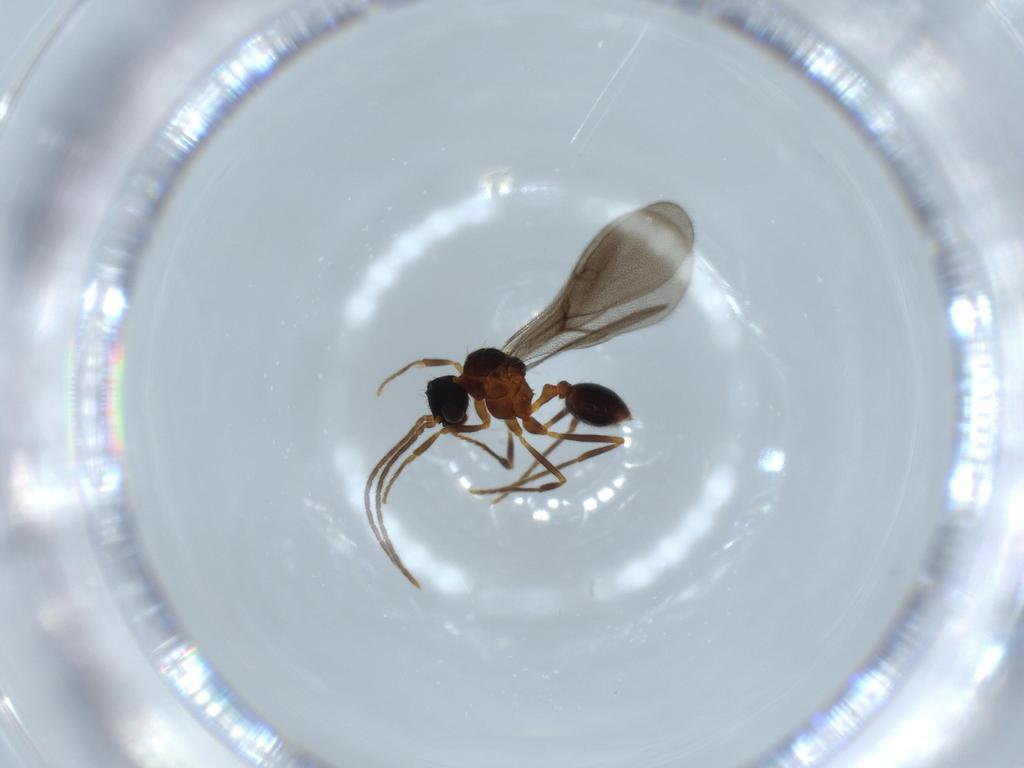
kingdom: Animalia
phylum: Arthropoda
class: Insecta
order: Hymenoptera
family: Formicidae
